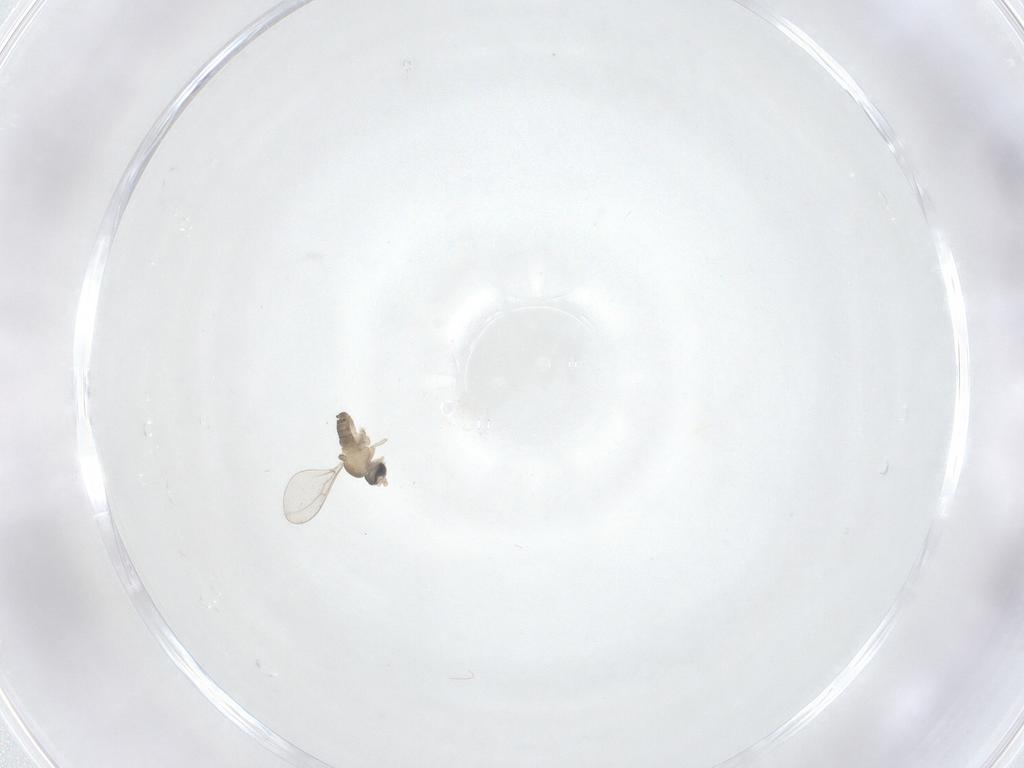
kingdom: Animalia
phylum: Arthropoda
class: Insecta
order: Diptera
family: Cecidomyiidae
